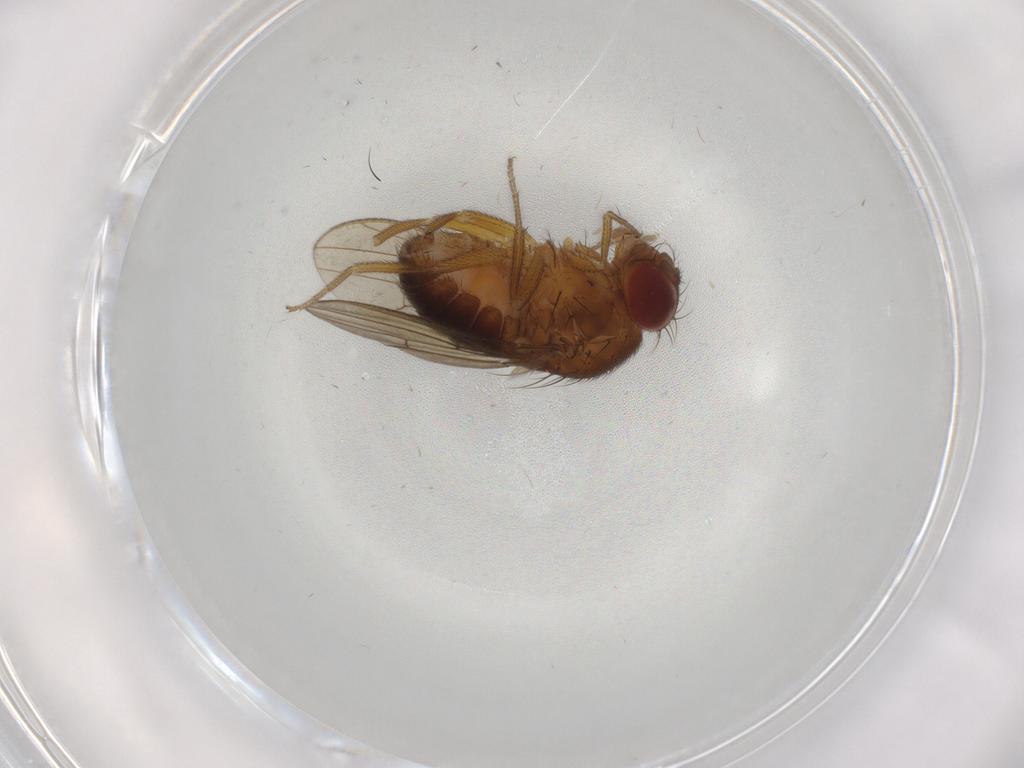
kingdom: Animalia
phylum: Arthropoda
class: Insecta
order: Diptera
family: Drosophilidae
